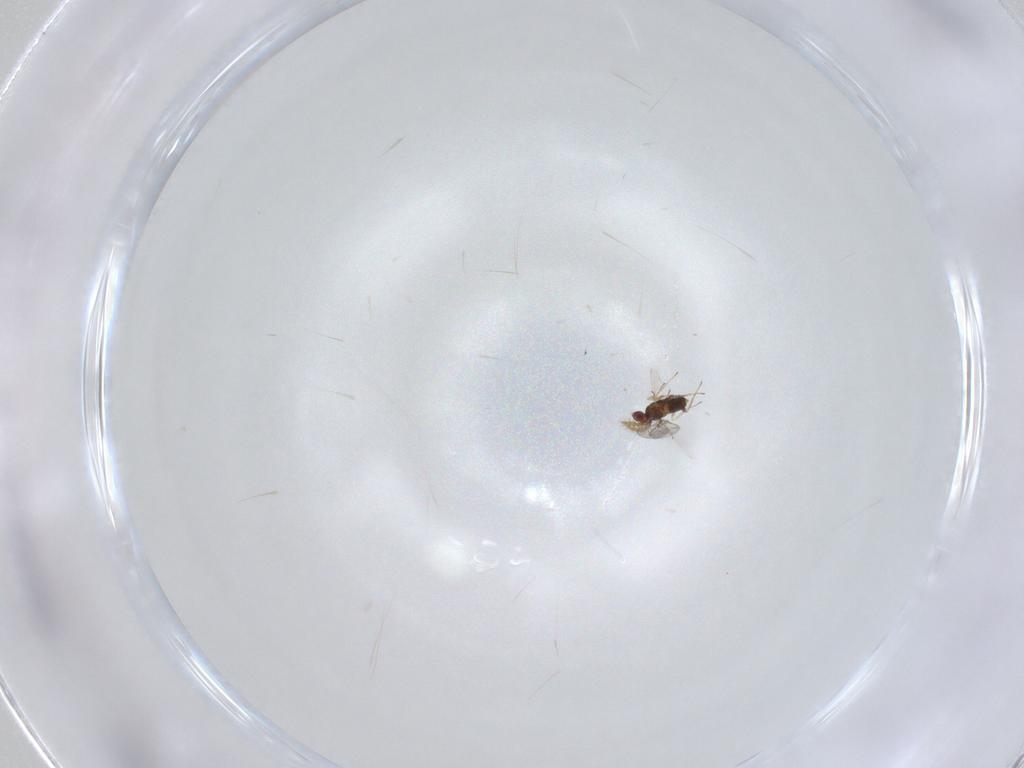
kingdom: Animalia
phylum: Arthropoda
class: Insecta
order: Hymenoptera
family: Trichogrammatidae
